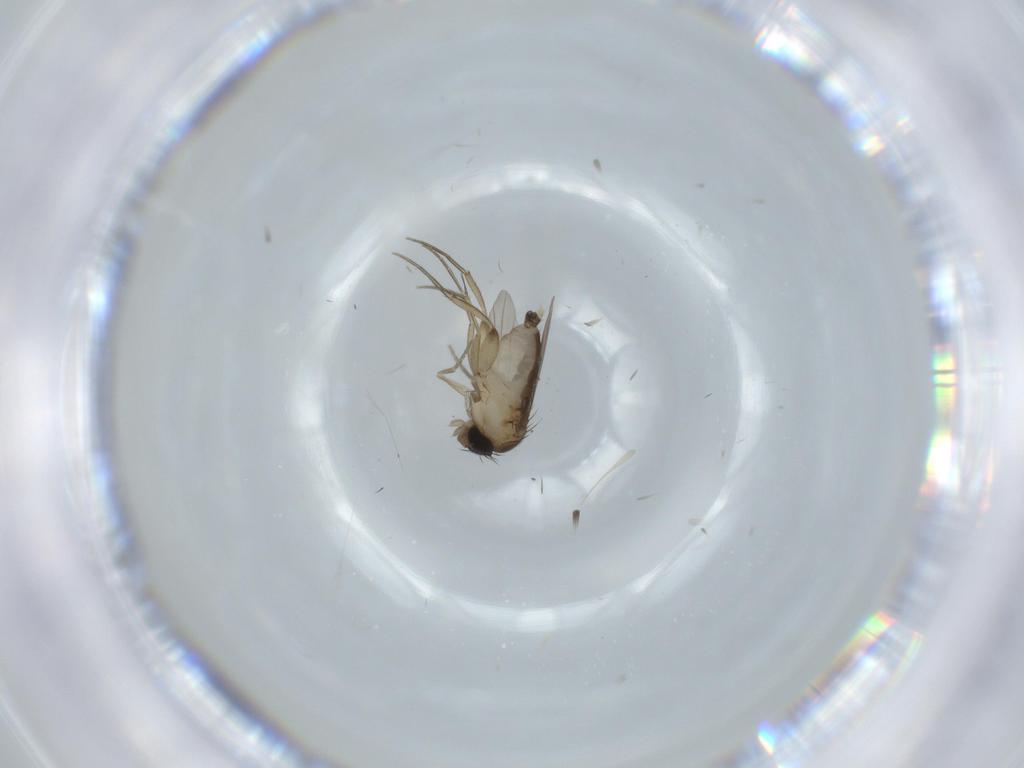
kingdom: Animalia
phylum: Arthropoda
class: Insecta
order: Diptera
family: Phoridae
